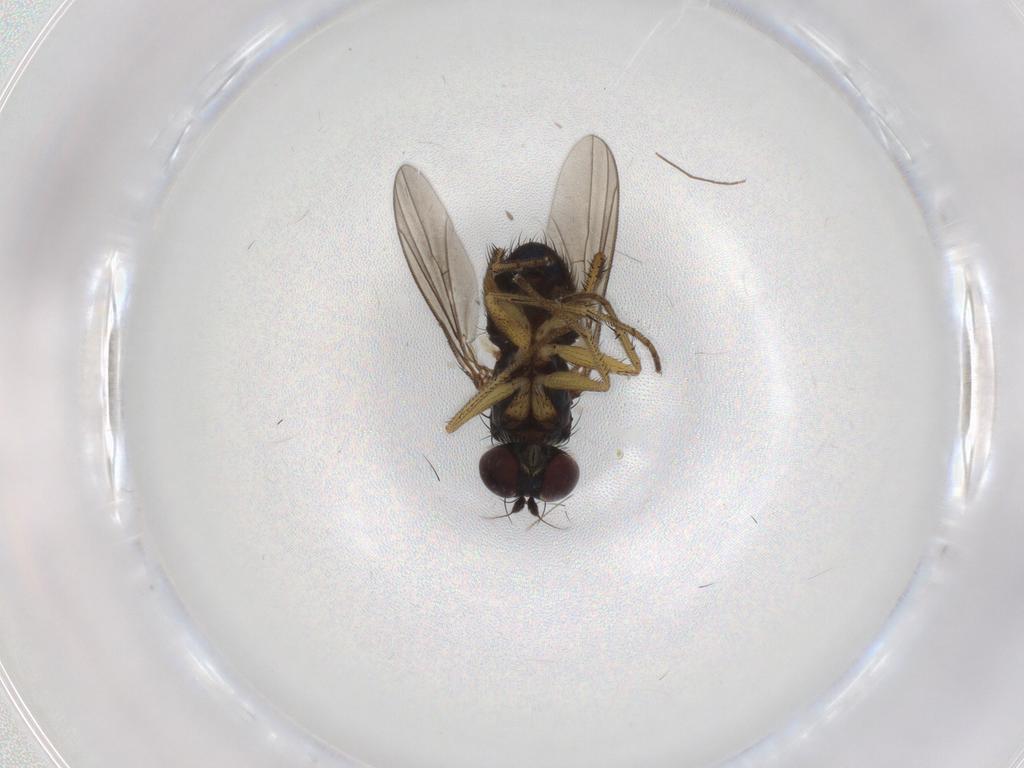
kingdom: Animalia
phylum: Arthropoda
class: Insecta
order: Diptera
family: Dolichopodidae
